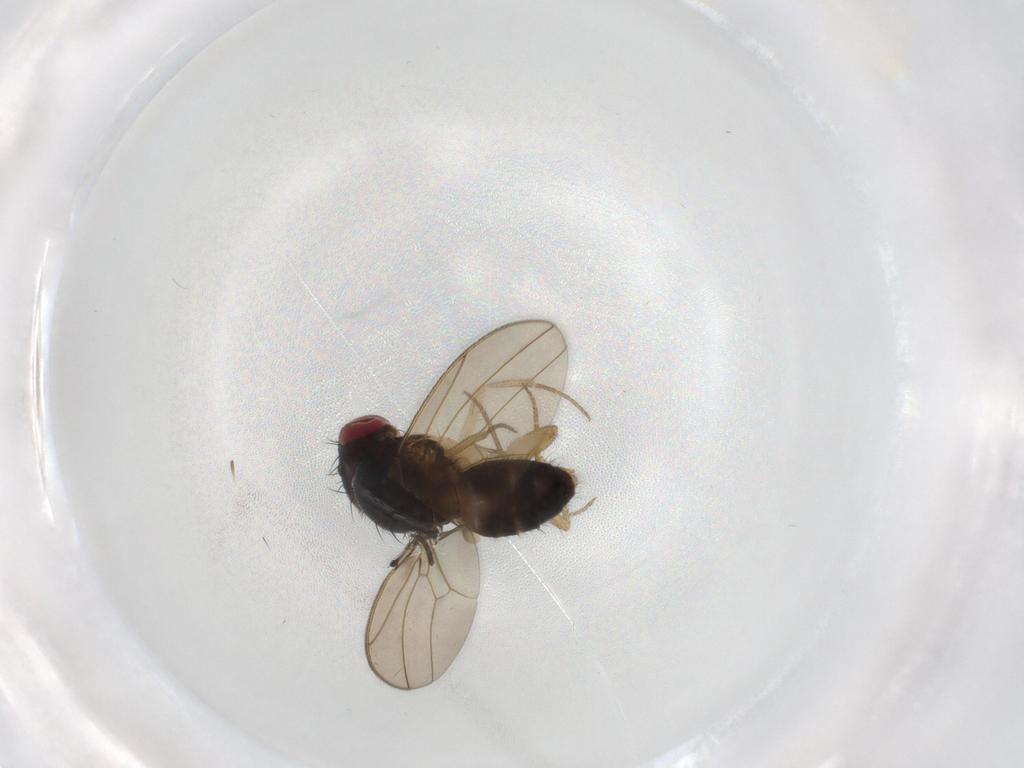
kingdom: Animalia
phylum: Arthropoda
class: Insecta
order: Diptera
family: Drosophilidae
